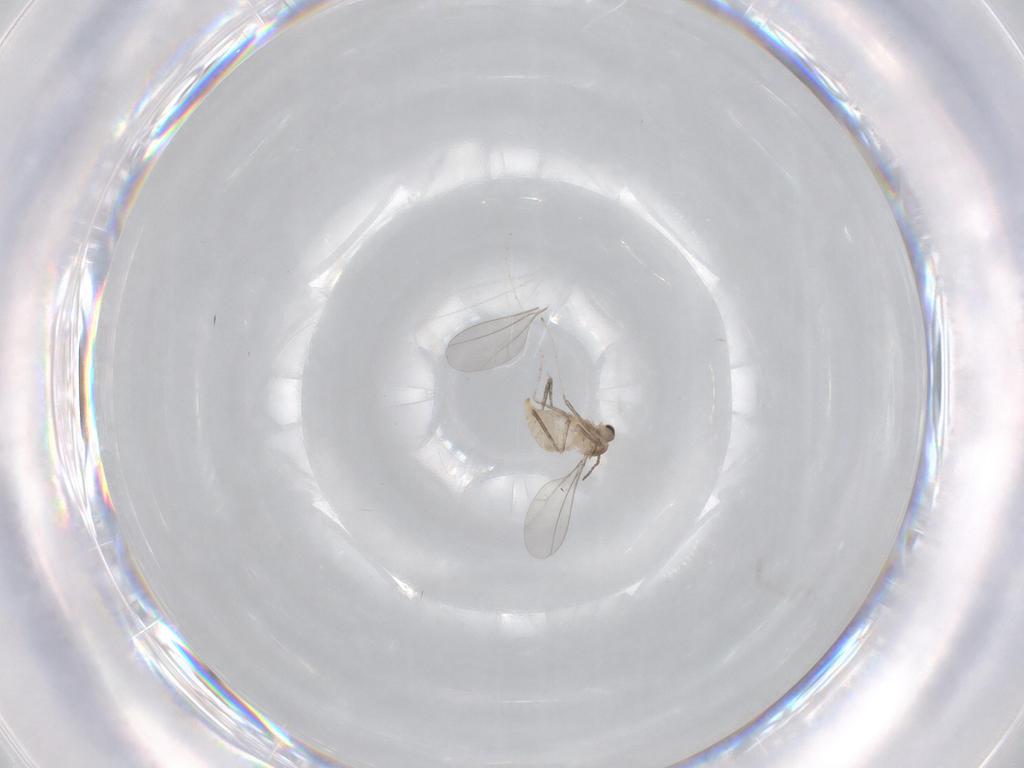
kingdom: Animalia
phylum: Arthropoda
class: Insecta
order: Diptera
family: Cecidomyiidae
